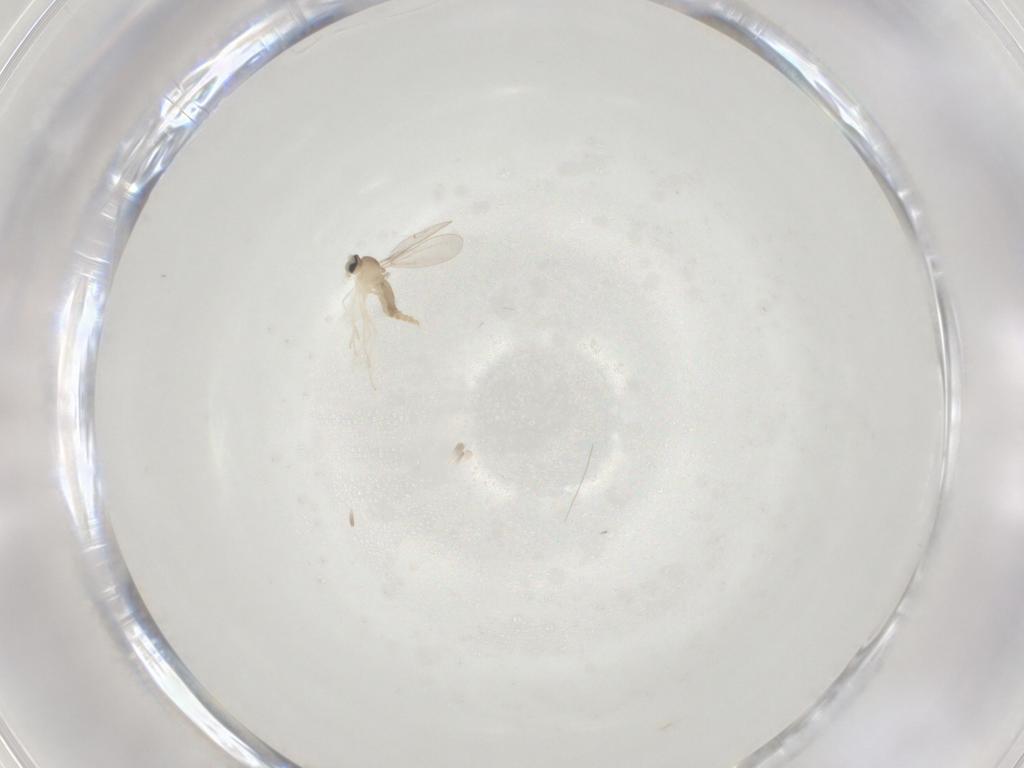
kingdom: Animalia
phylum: Arthropoda
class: Insecta
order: Diptera
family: Cecidomyiidae
